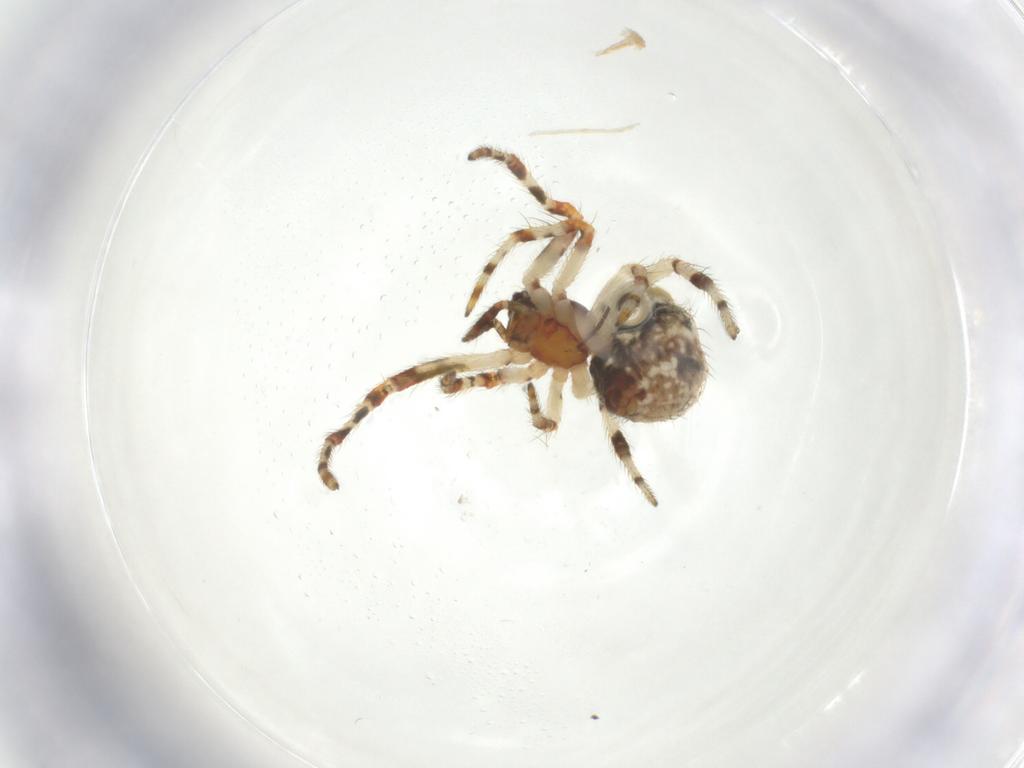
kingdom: Animalia
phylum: Arthropoda
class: Arachnida
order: Araneae
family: Theridiidae
